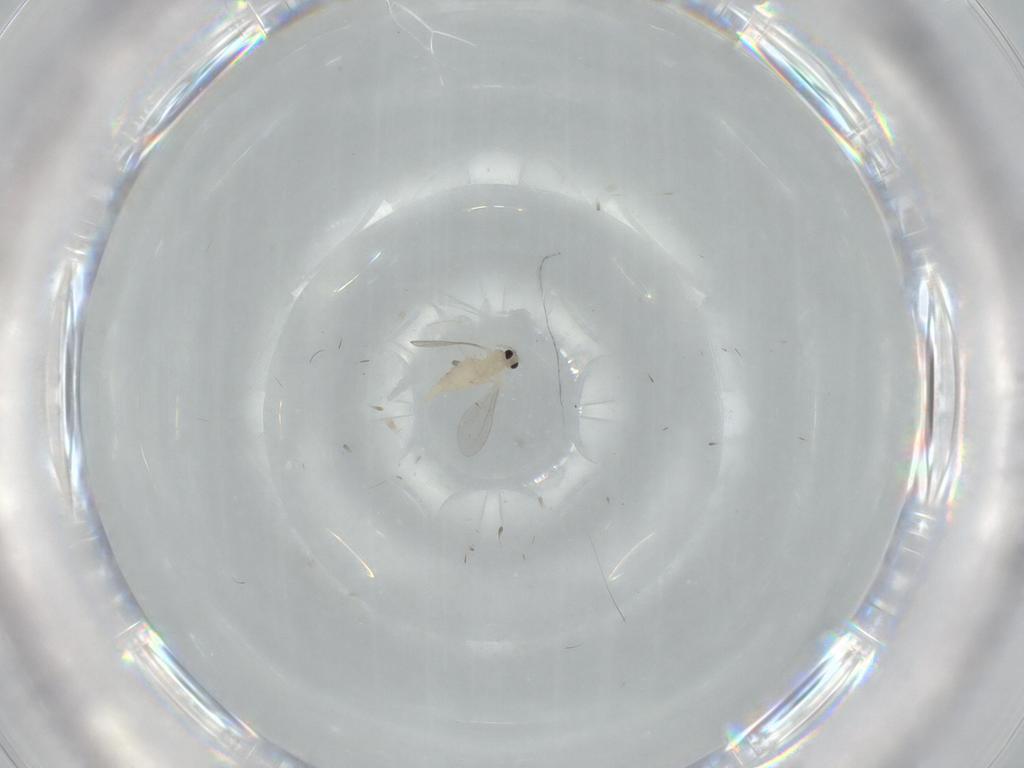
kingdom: Animalia
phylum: Arthropoda
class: Insecta
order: Diptera
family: Cecidomyiidae
